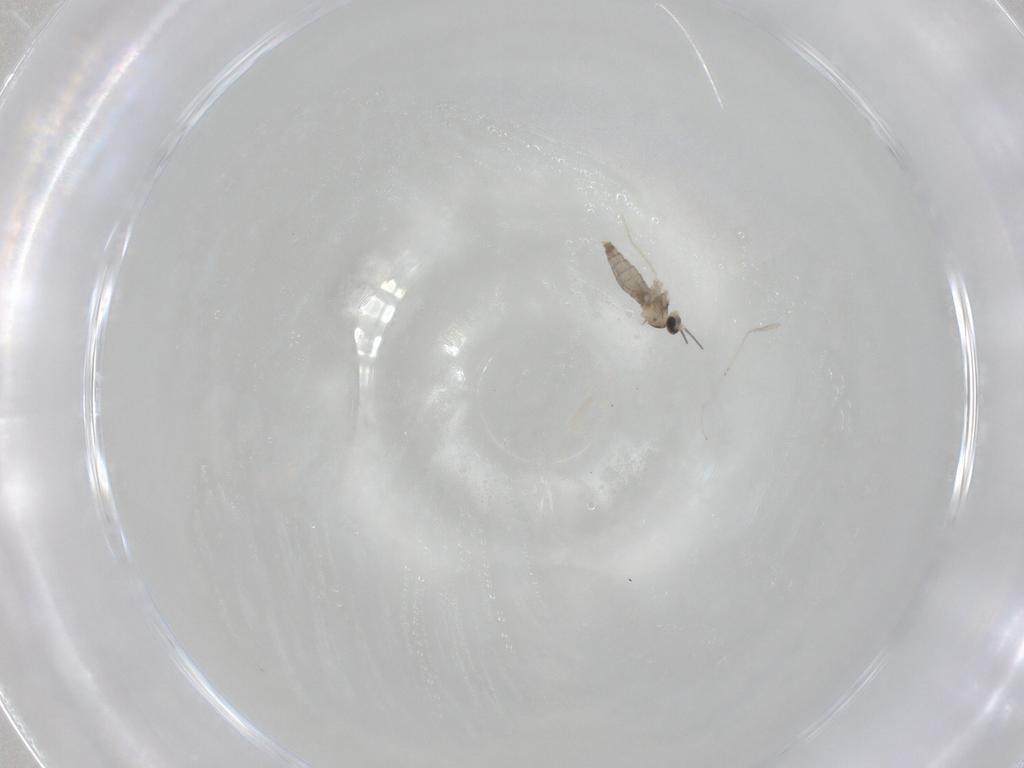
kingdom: Animalia
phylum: Arthropoda
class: Insecta
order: Diptera
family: Cecidomyiidae
